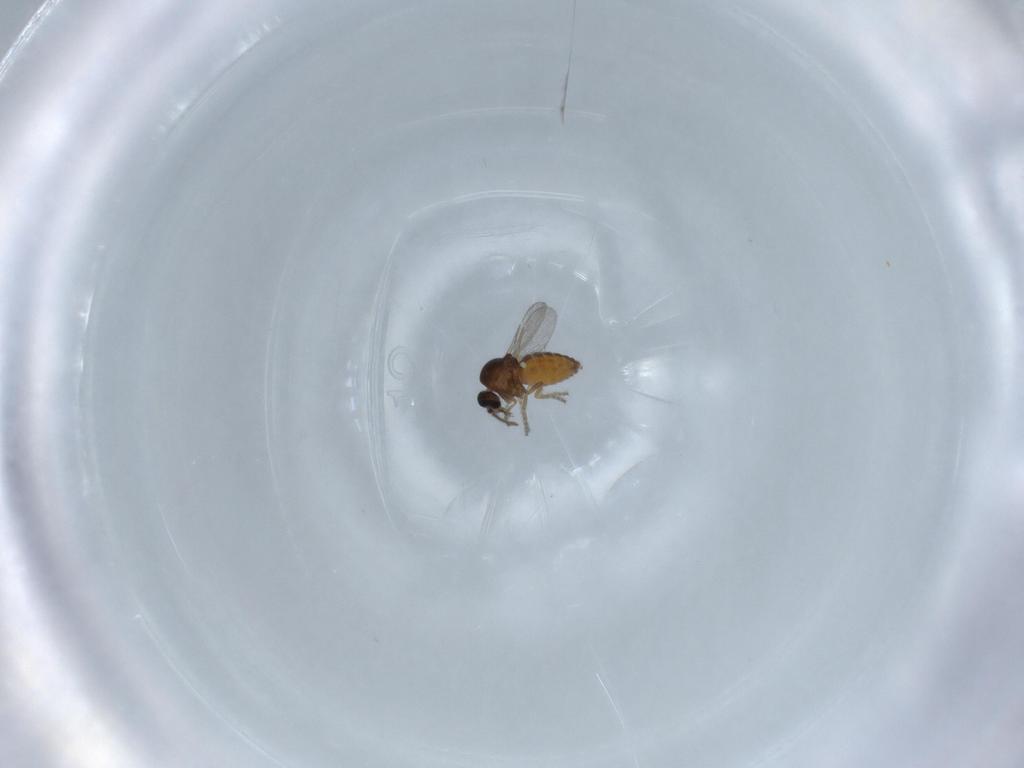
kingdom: Animalia
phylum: Arthropoda
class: Insecta
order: Diptera
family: Ceratopogonidae
